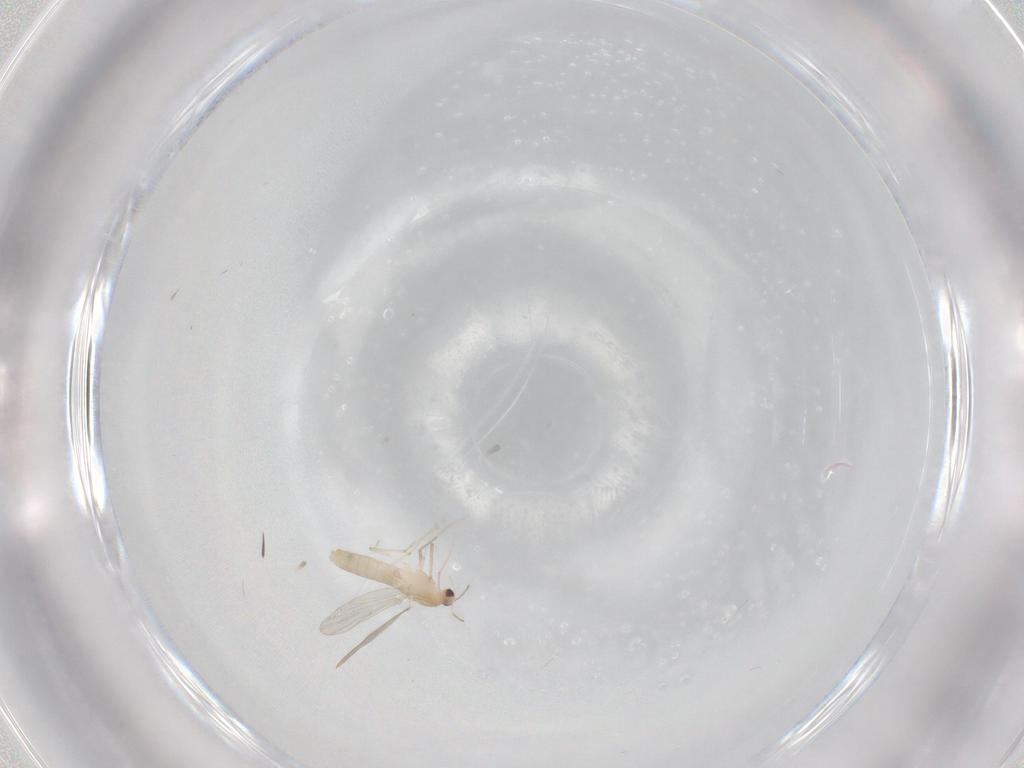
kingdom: Animalia
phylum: Arthropoda
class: Insecta
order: Diptera
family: Chironomidae
